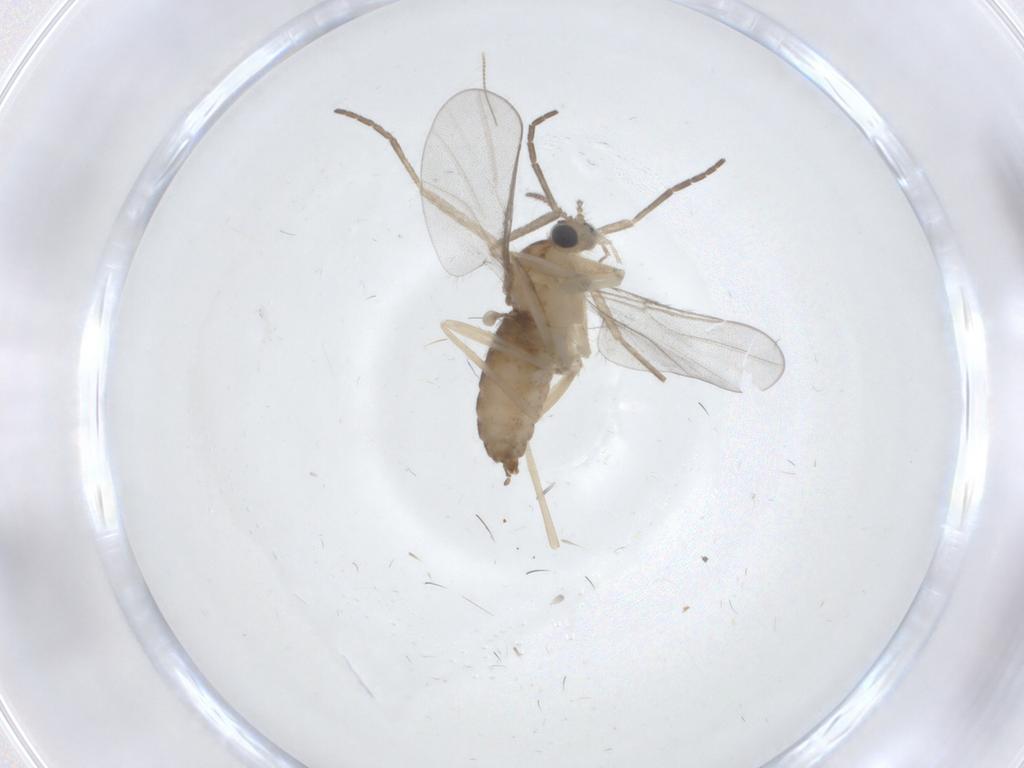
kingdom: Animalia
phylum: Arthropoda
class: Insecta
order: Diptera
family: Cecidomyiidae
